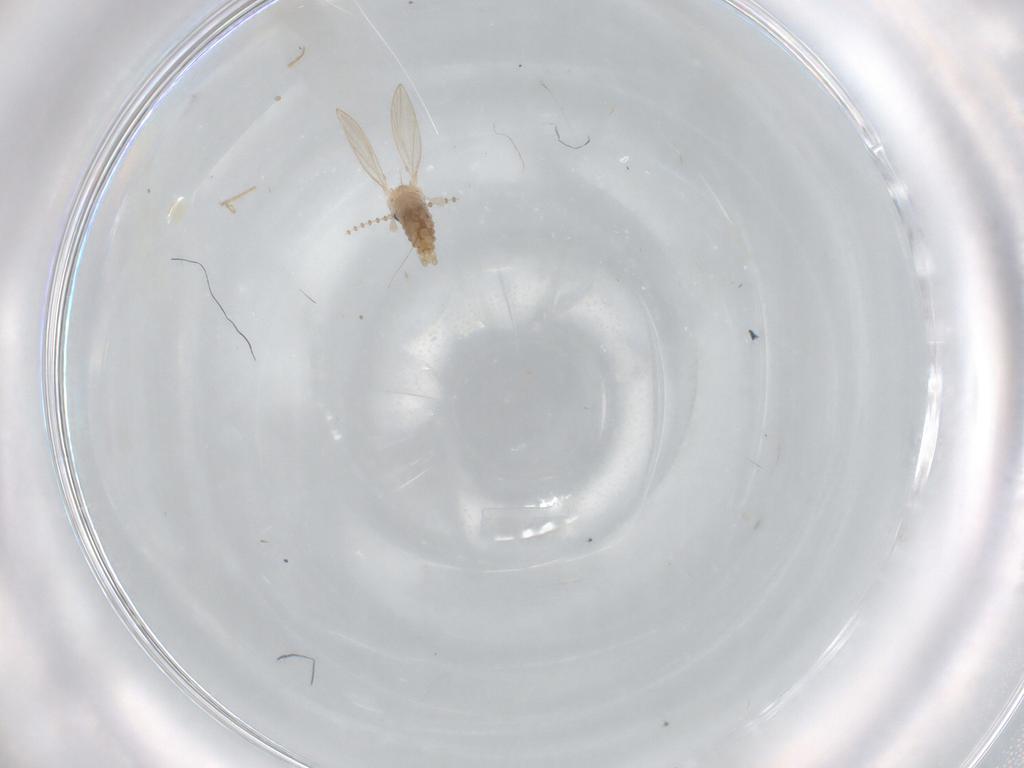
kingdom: Animalia
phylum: Arthropoda
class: Insecta
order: Diptera
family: Psychodidae
